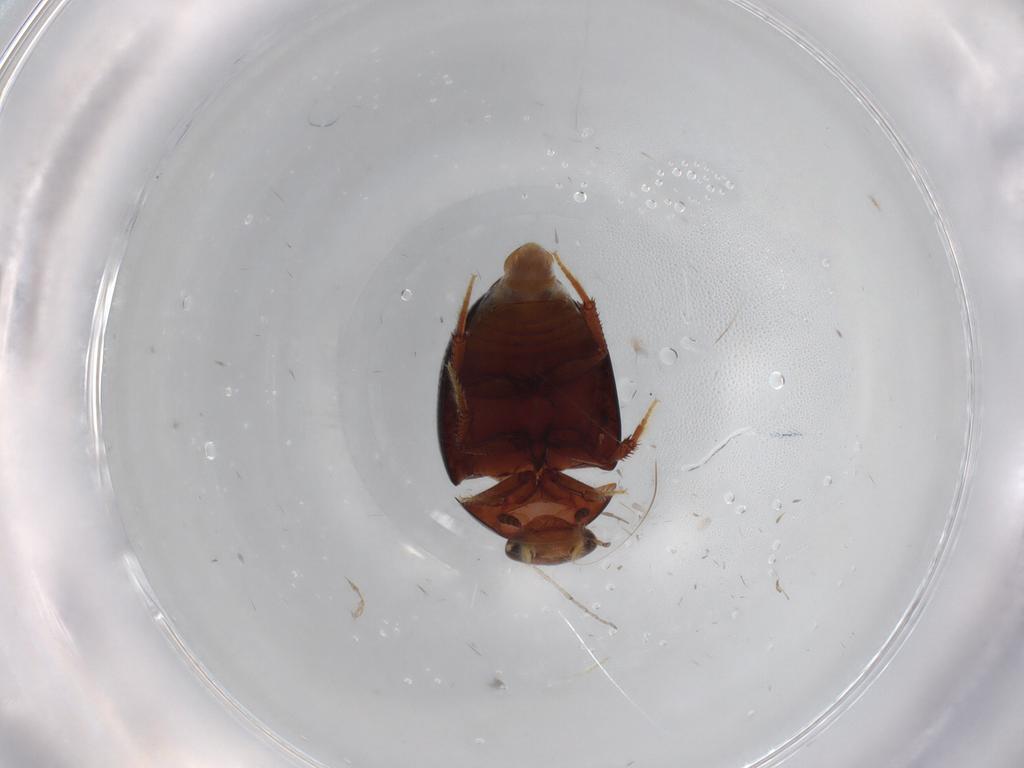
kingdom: Animalia
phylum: Arthropoda
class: Insecta
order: Coleoptera
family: Hydrophilidae
